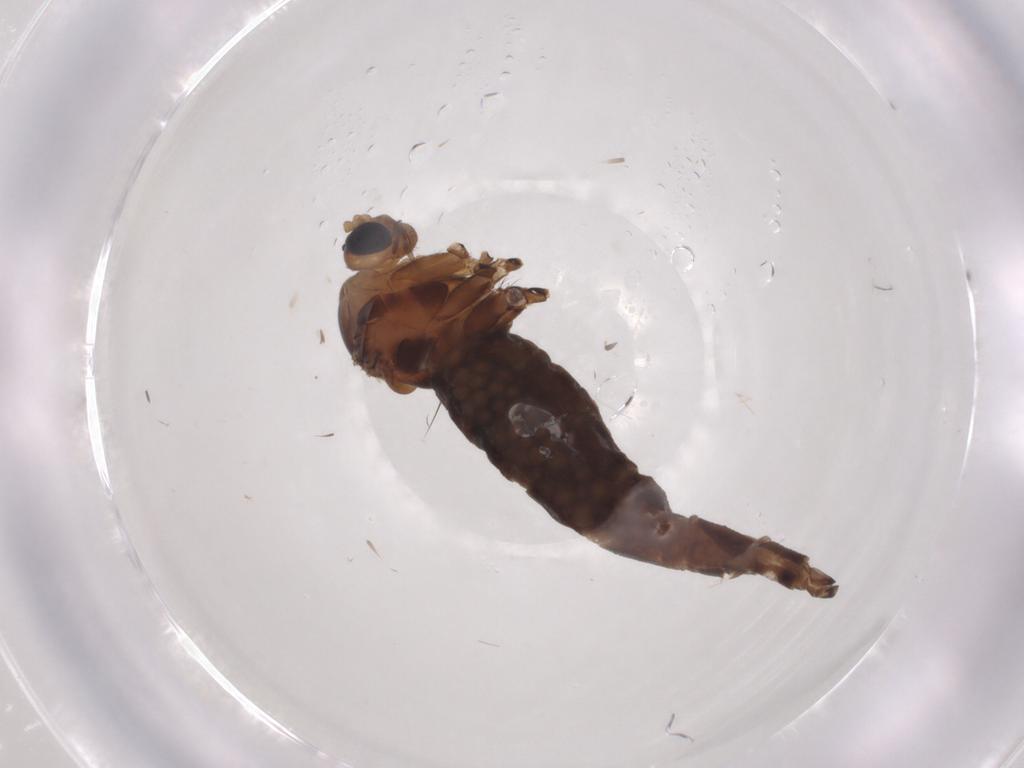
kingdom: Animalia
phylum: Arthropoda
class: Insecta
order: Diptera
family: Sciaridae
